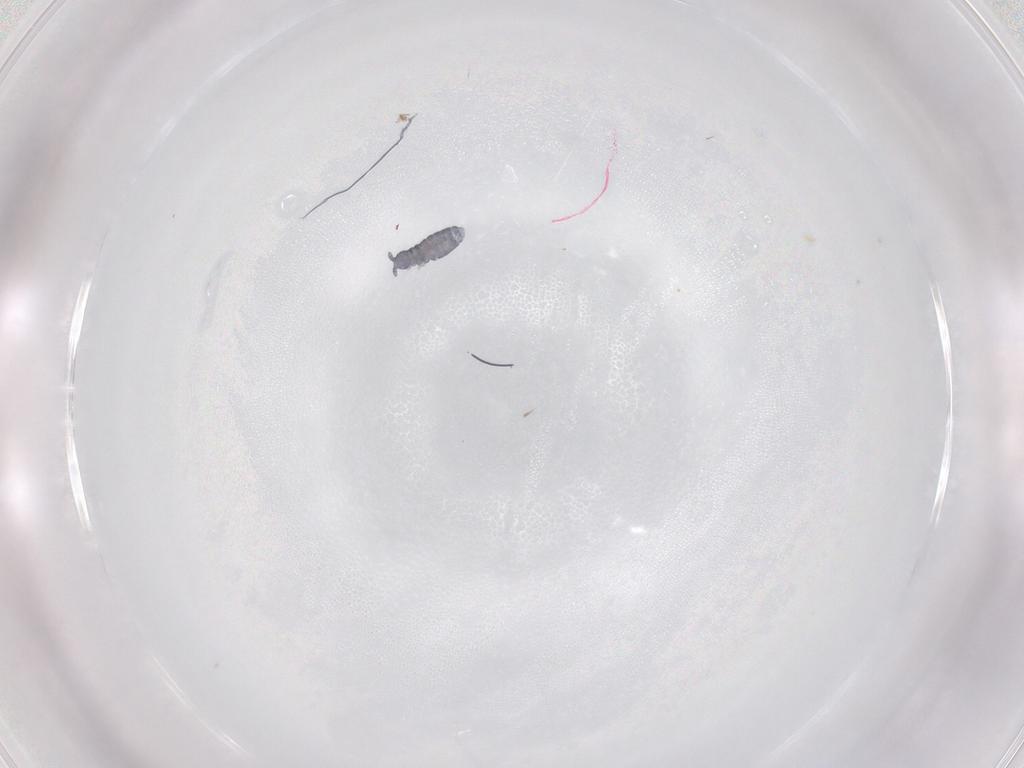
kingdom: Animalia
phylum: Arthropoda
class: Collembola
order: Poduromorpha
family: Hypogastruridae
